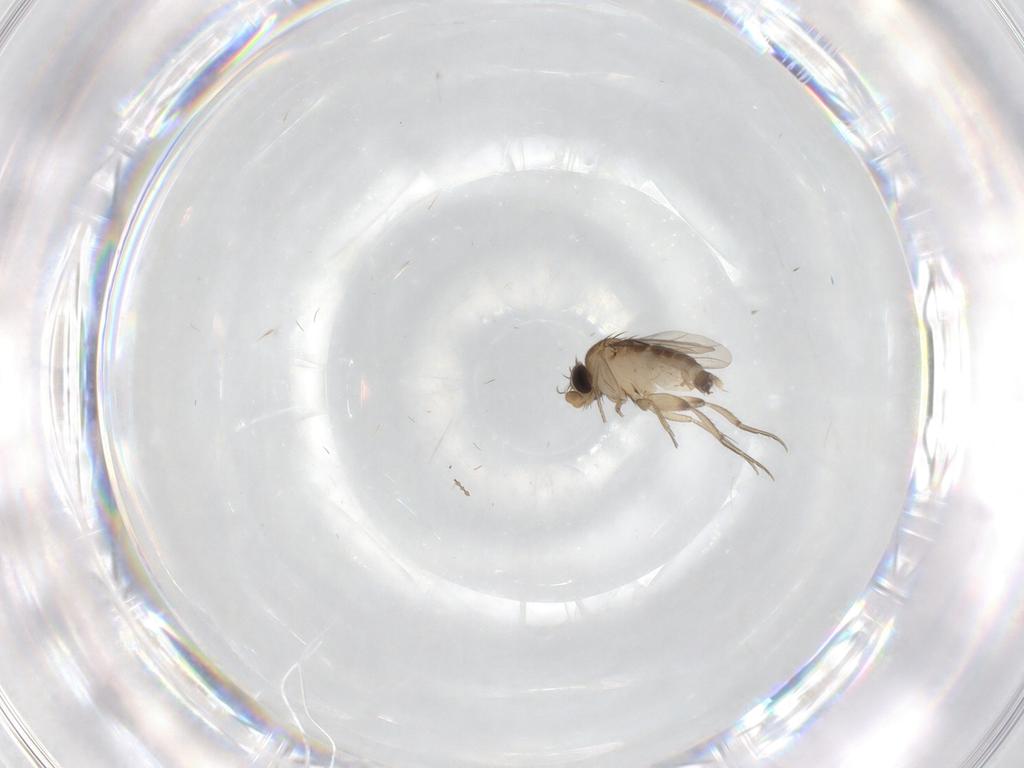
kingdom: Animalia
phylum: Arthropoda
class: Insecta
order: Diptera
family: Phoridae
